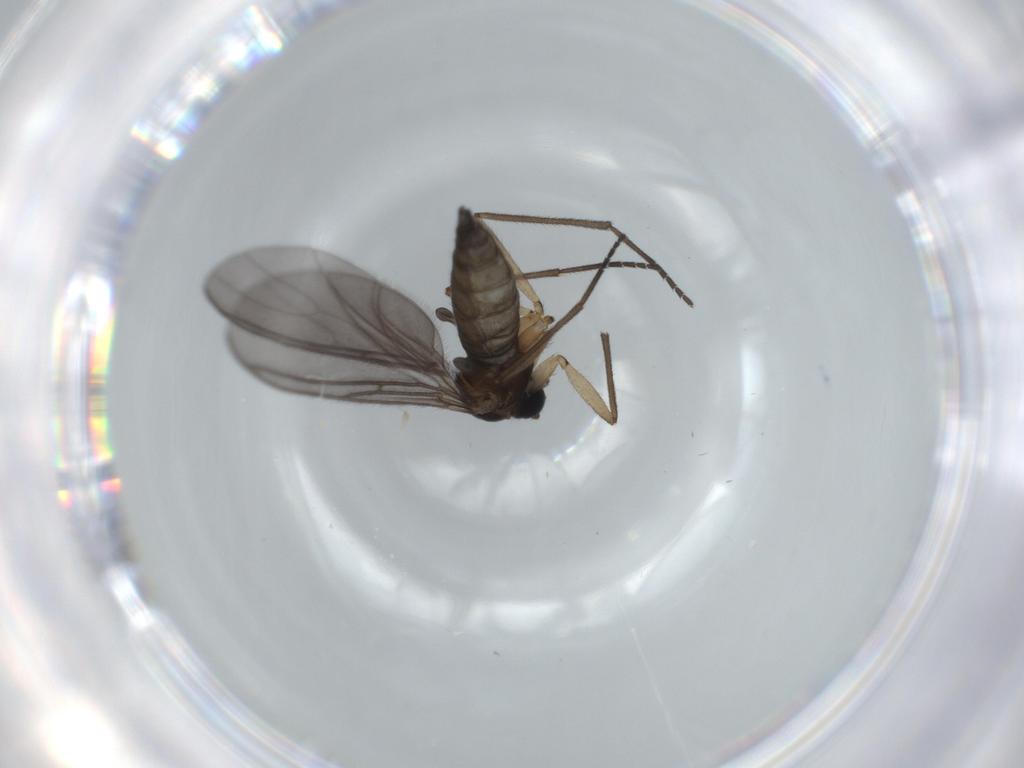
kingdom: Animalia
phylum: Arthropoda
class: Insecta
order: Diptera
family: Sciaridae
